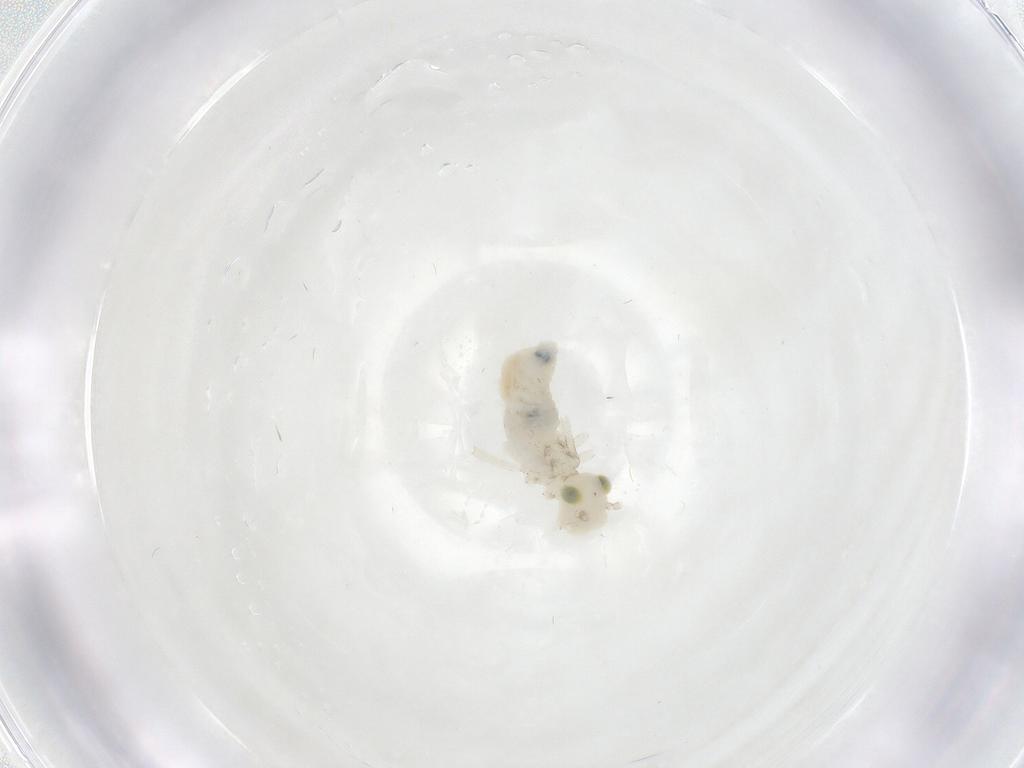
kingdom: Animalia
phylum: Arthropoda
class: Insecta
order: Psocodea
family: Caeciliusidae
